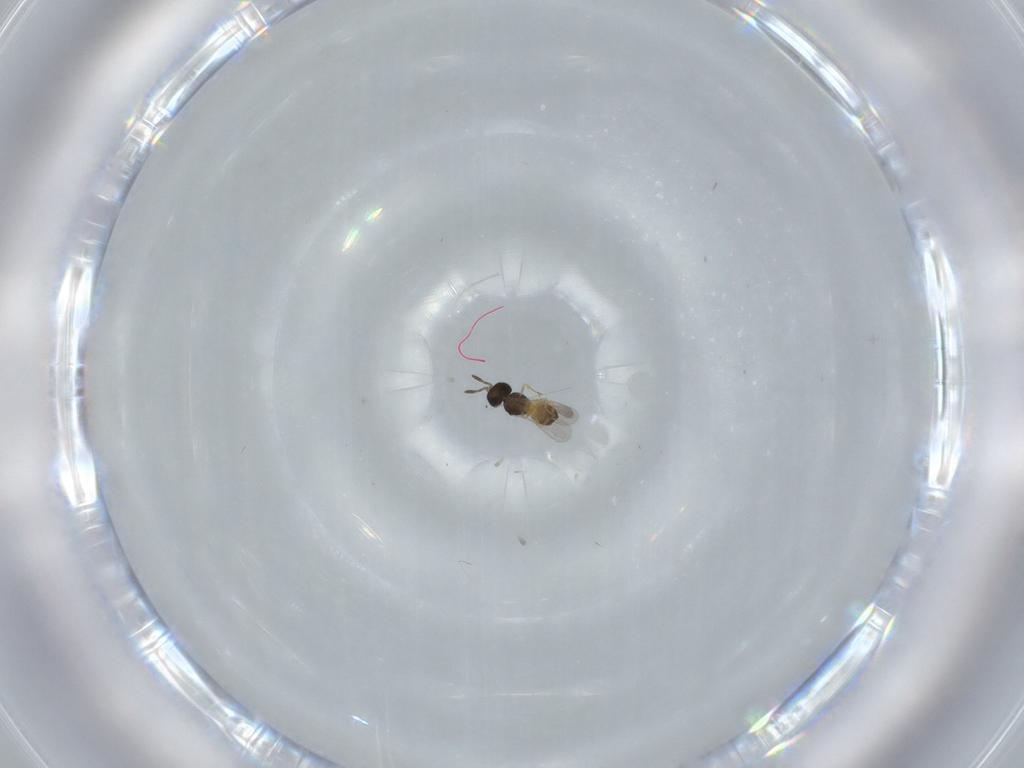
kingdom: Animalia
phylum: Arthropoda
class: Insecta
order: Hymenoptera
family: Scelionidae
